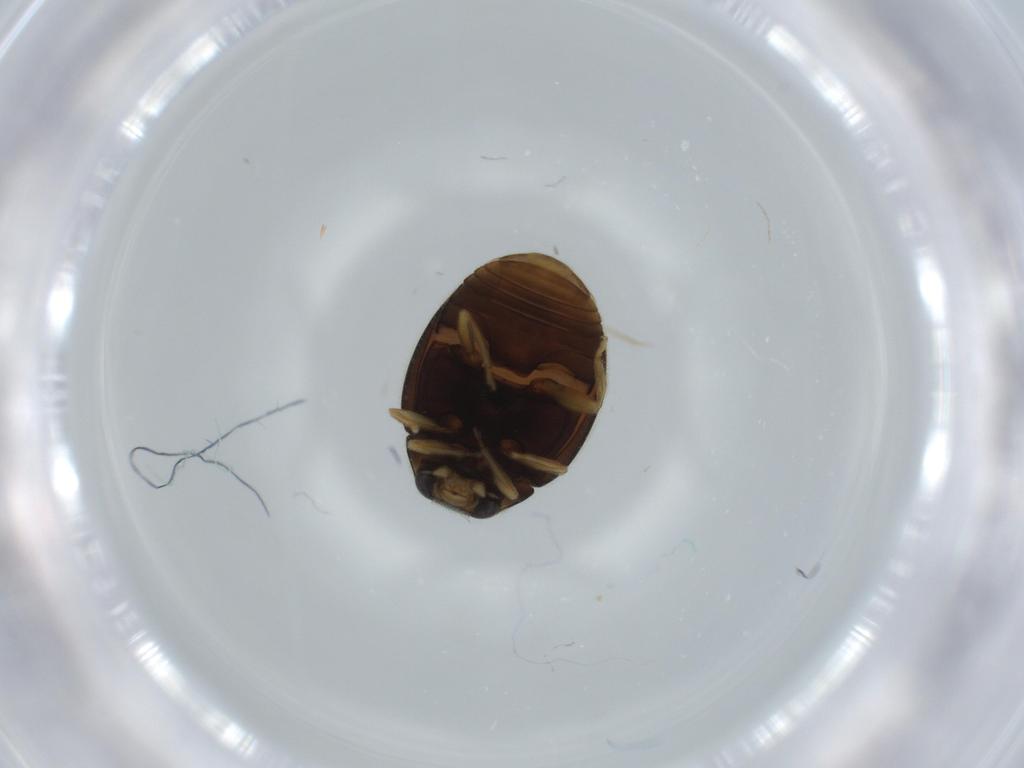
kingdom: Animalia
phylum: Arthropoda
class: Insecta
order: Coleoptera
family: Coccinellidae
